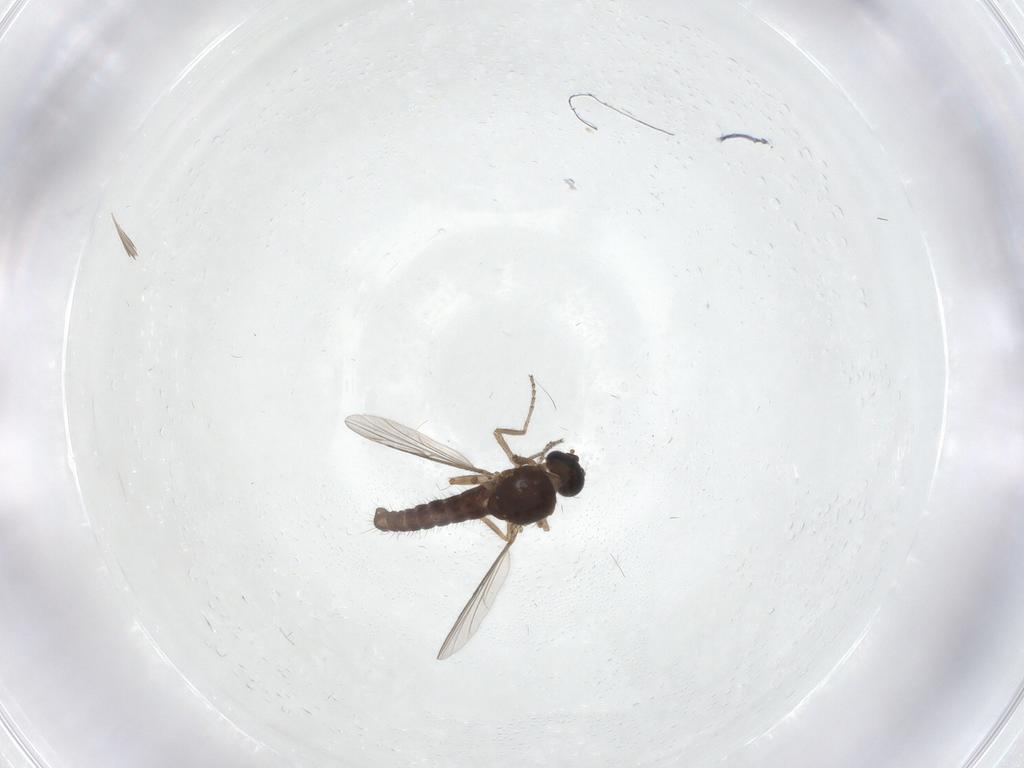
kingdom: Animalia
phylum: Arthropoda
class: Insecta
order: Diptera
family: Ceratopogonidae
